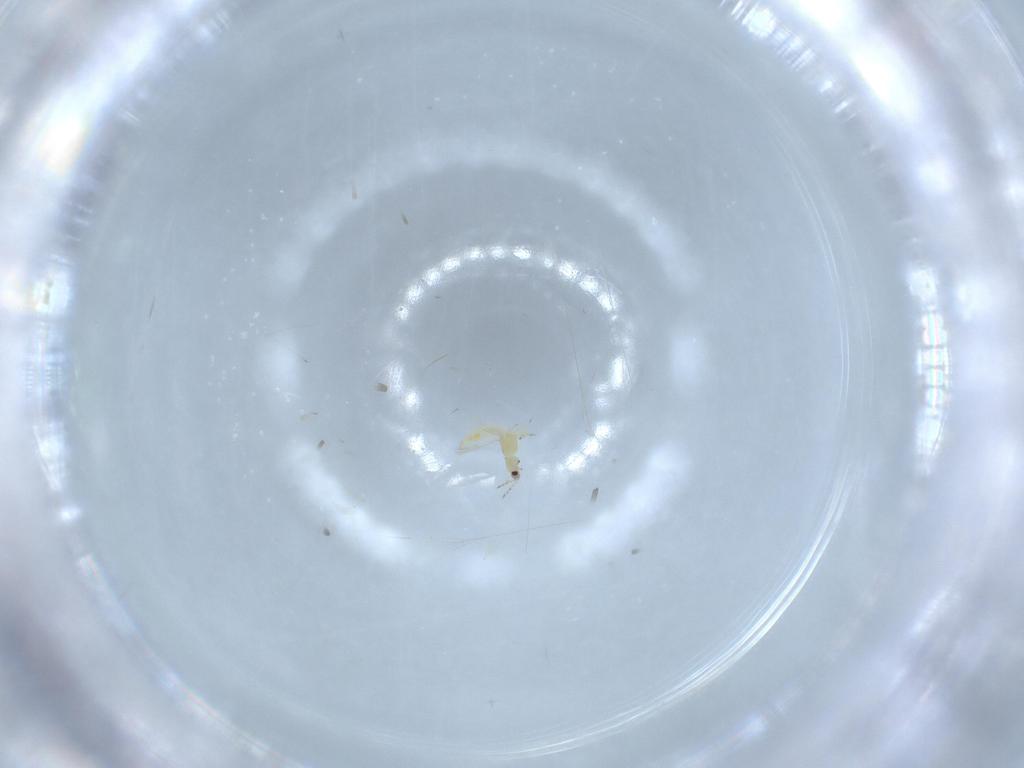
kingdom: Animalia
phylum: Arthropoda
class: Insecta
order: Thysanoptera
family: Thripidae
